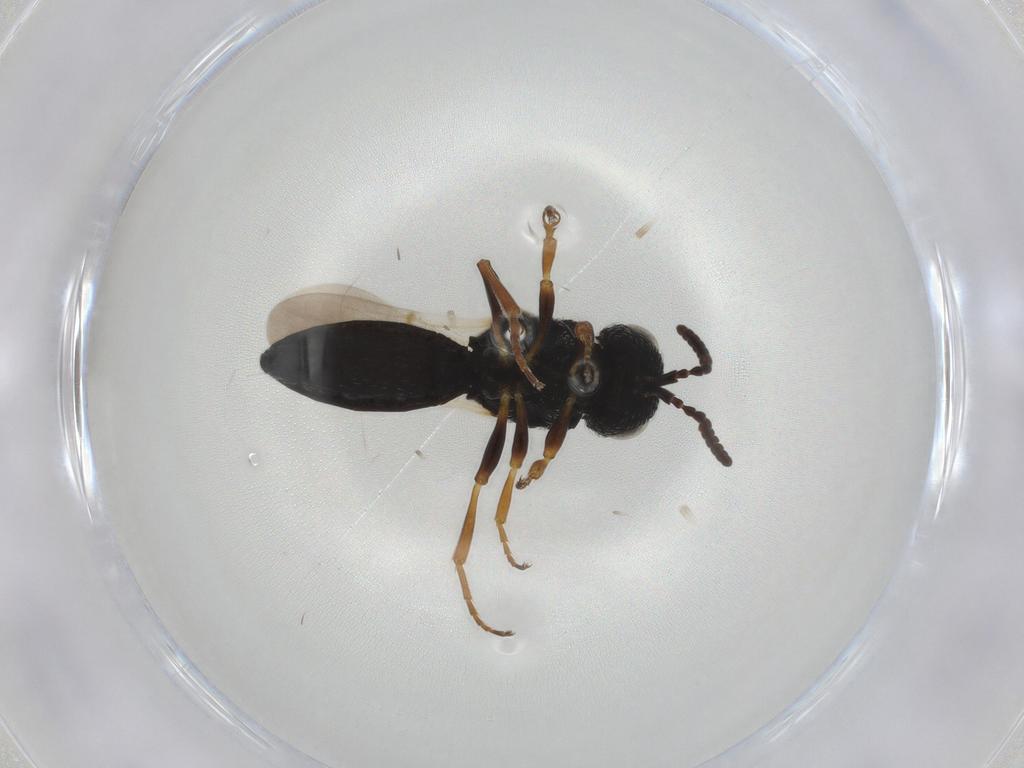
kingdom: Animalia
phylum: Arthropoda
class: Insecta
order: Hymenoptera
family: Scelionidae
